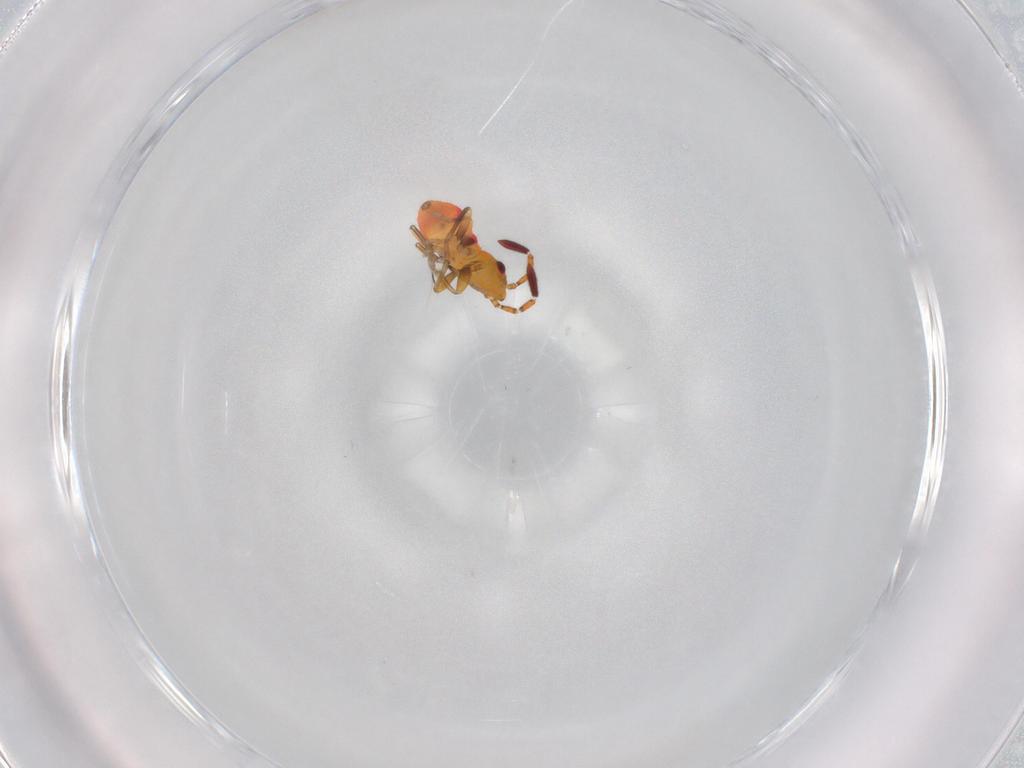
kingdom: Animalia
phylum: Arthropoda
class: Insecta
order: Hemiptera
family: Rhyparochromidae
